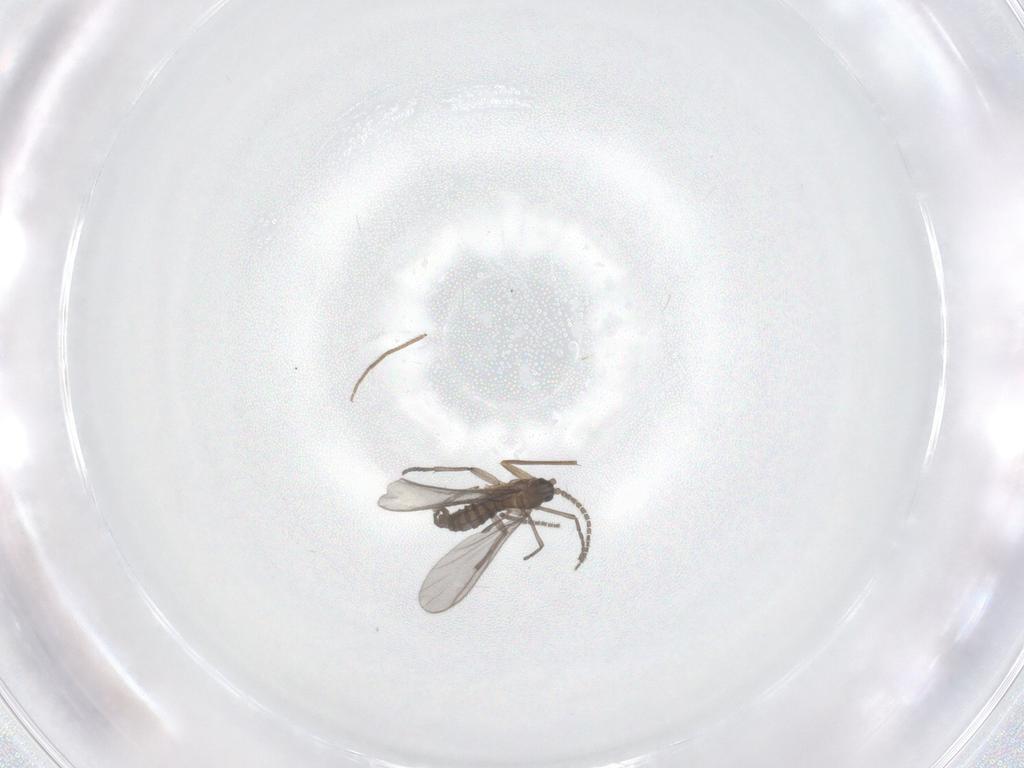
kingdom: Animalia
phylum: Arthropoda
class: Insecta
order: Diptera
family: Sciaridae
